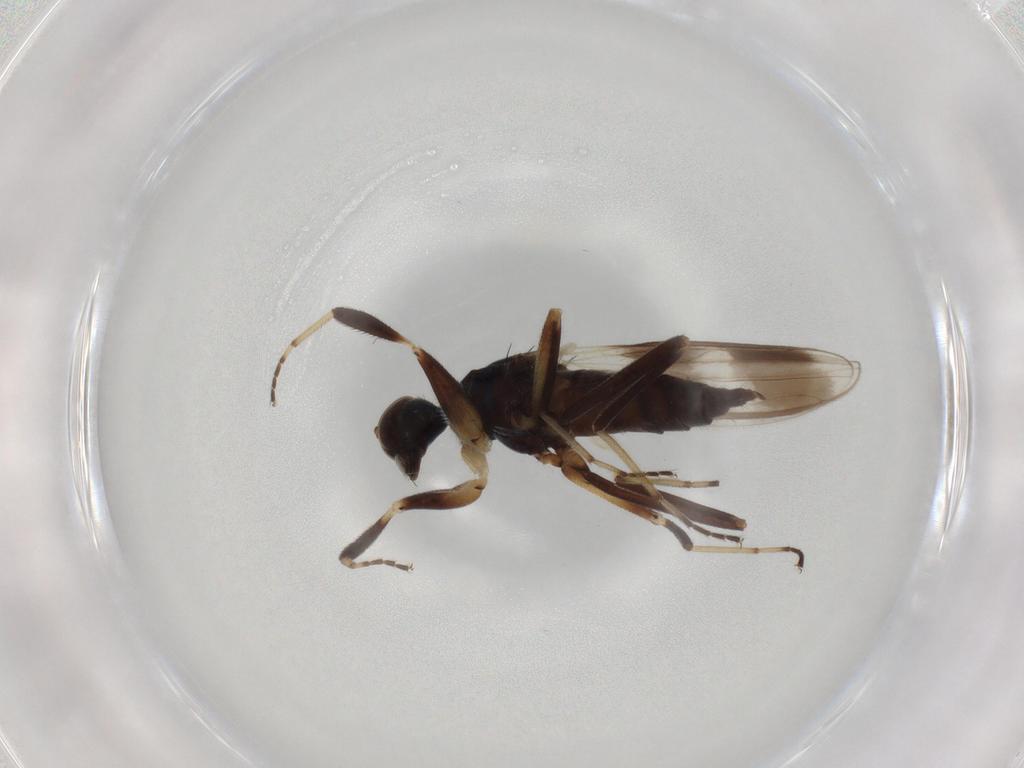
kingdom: Animalia
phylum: Arthropoda
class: Insecta
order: Diptera
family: Hybotidae
